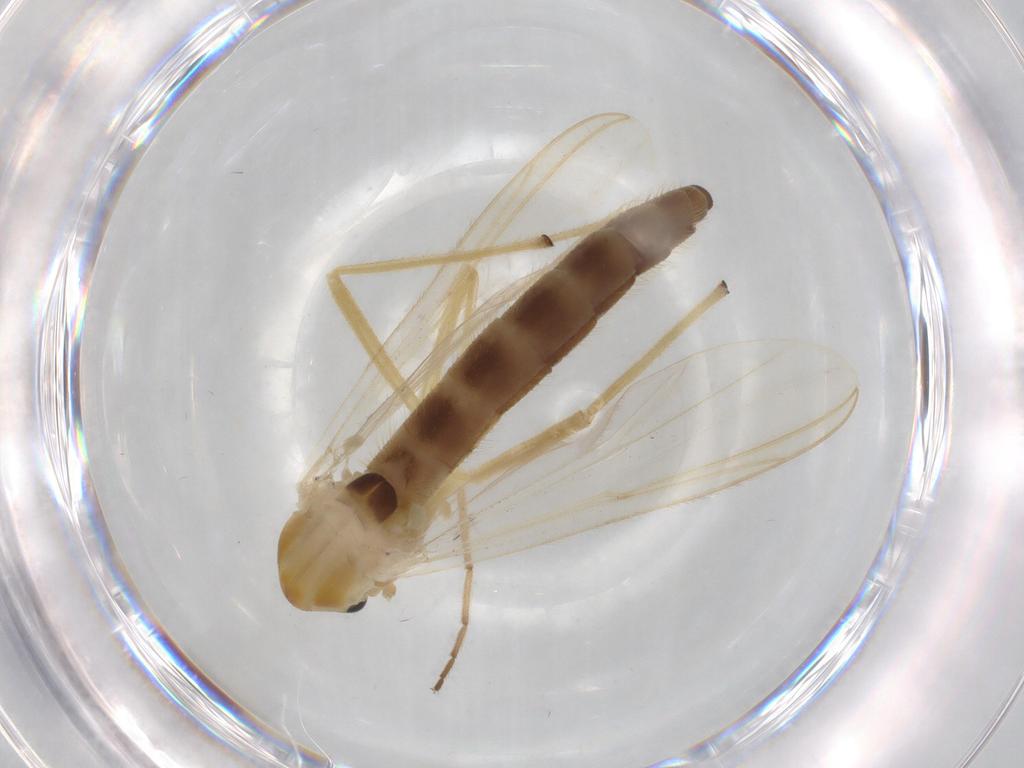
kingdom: Animalia
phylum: Arthropoda
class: Insecta
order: Diptera
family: Chironomidae
